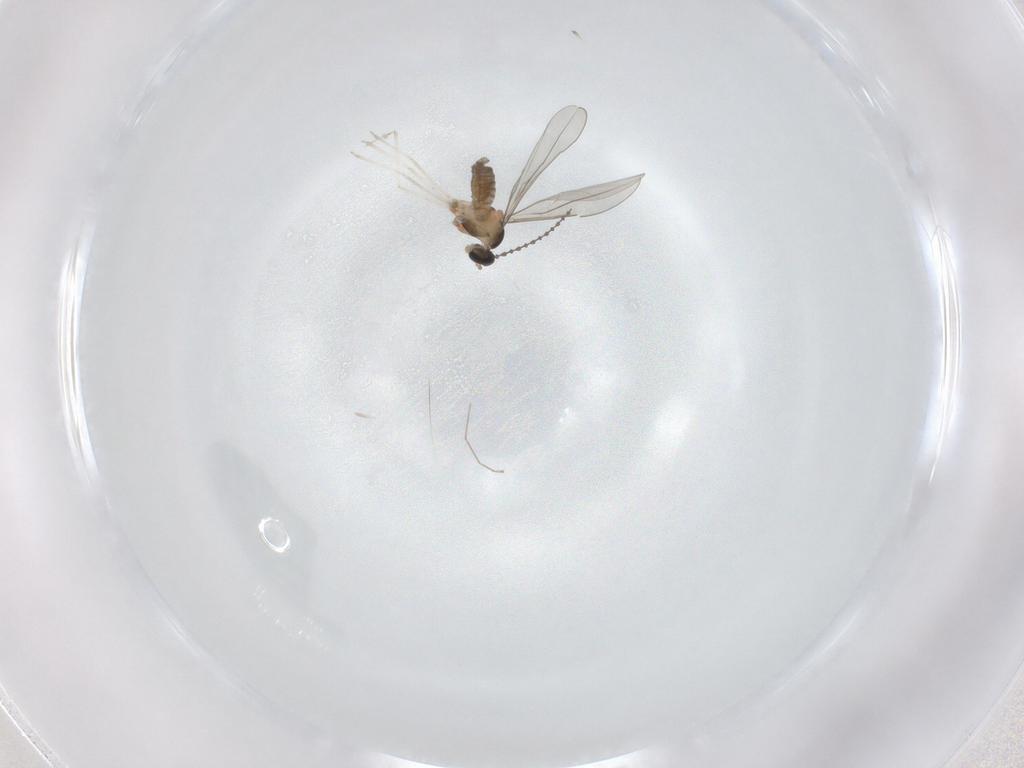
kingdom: Animalia
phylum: Arthropoda
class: Insecta
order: Diptera
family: Cecidomyiidae
